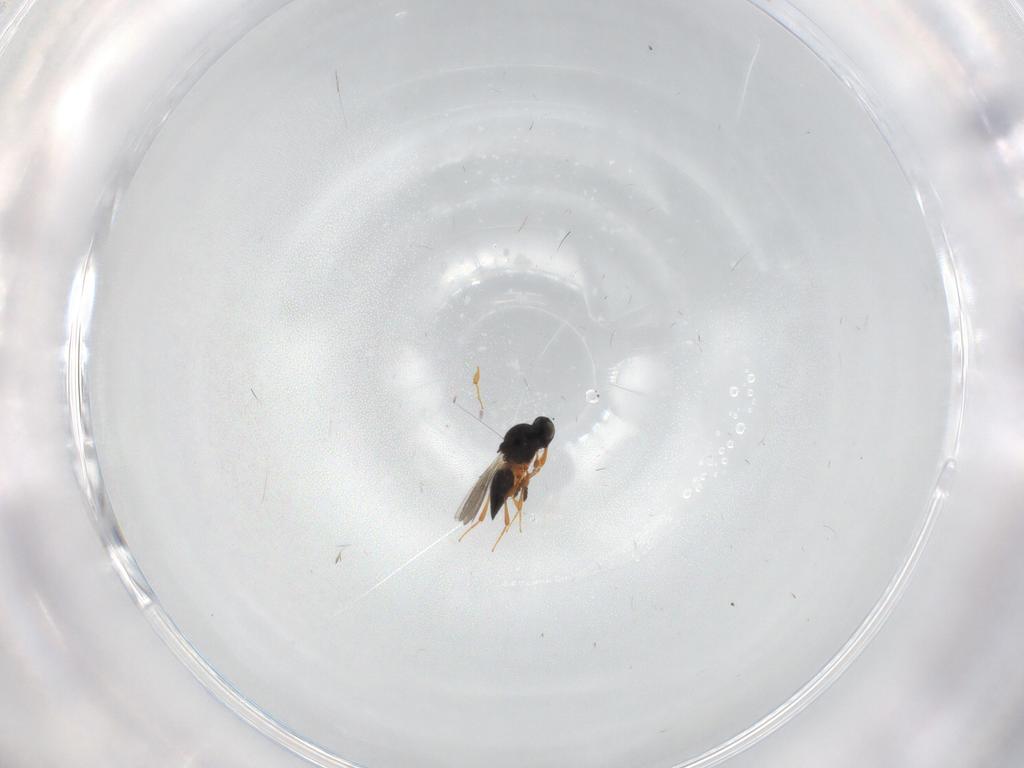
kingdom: Animalia
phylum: Arthropoda
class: Insecta
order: Hymenoptera
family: Platygastridae
